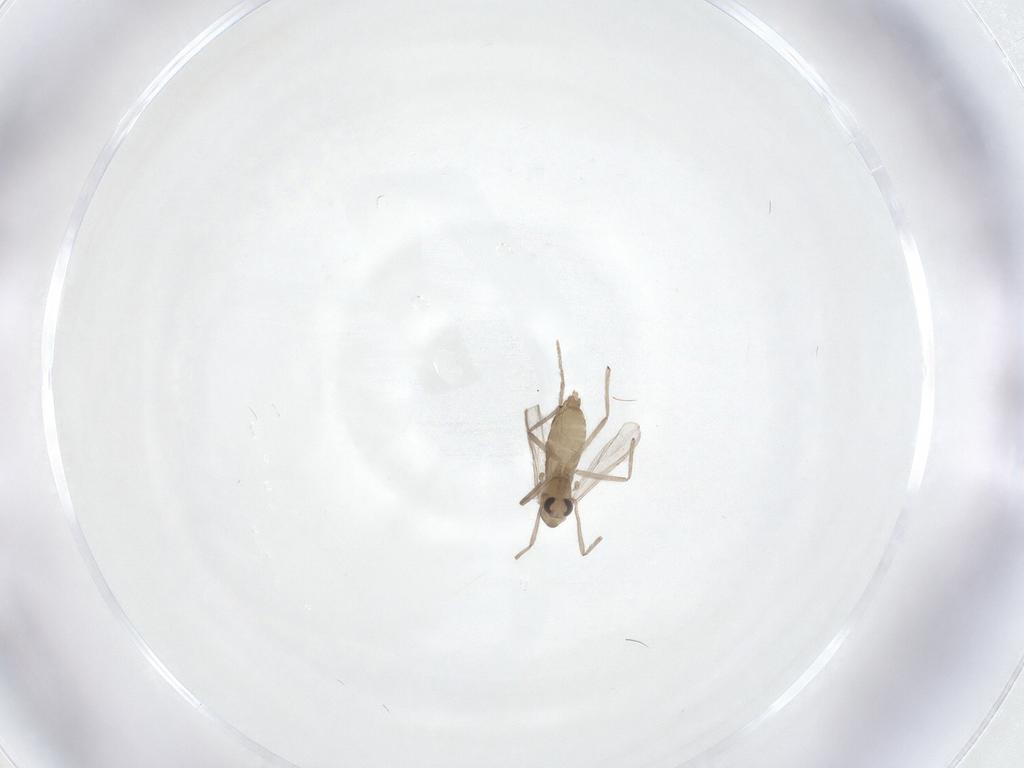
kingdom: Animalia
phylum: Arthropoda
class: Insecta
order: Diptera
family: Chironomidae
